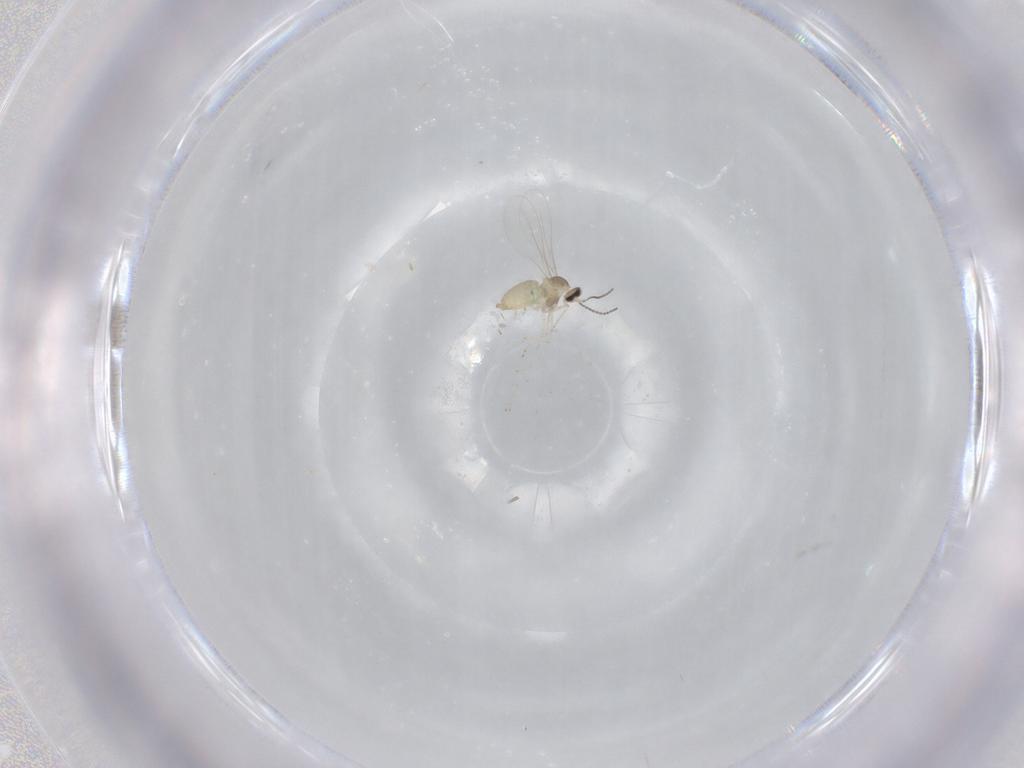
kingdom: Animalia
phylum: Arthropoda
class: Insecta
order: Diptera
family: Cecidomyiidae
